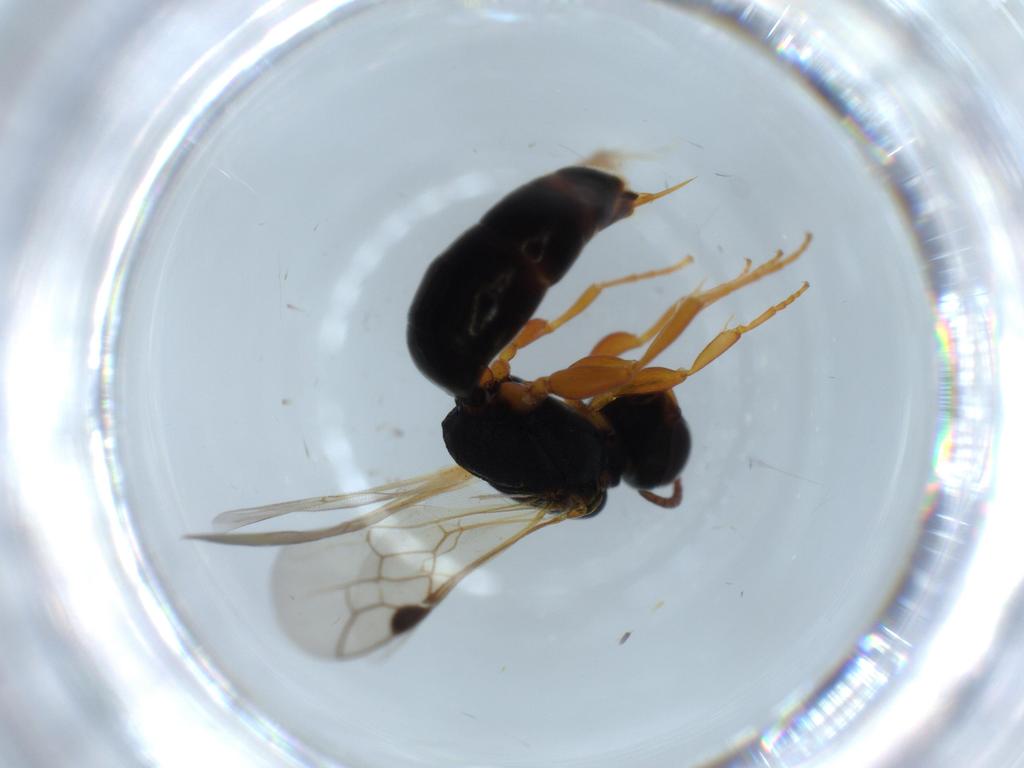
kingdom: Animalia
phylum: Arthropoda
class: Insecta
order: Hymenoptera
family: Pemphredonidae
